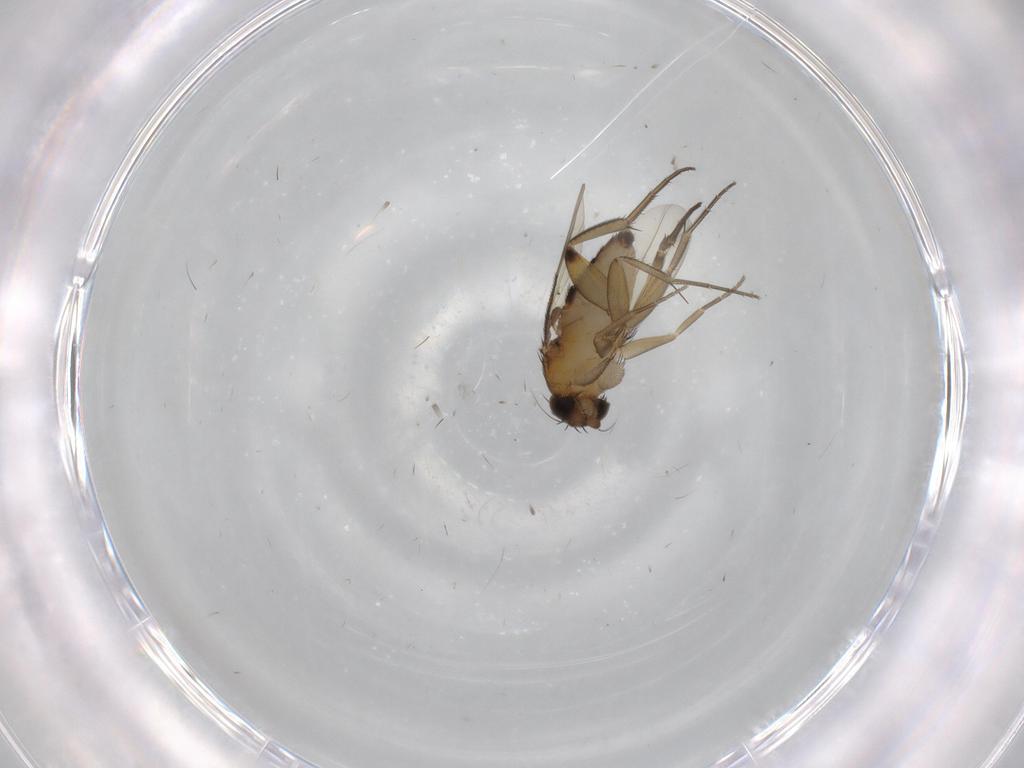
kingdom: Animalia
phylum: Arthropoda
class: Insecta
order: Diptera
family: Phoridae
